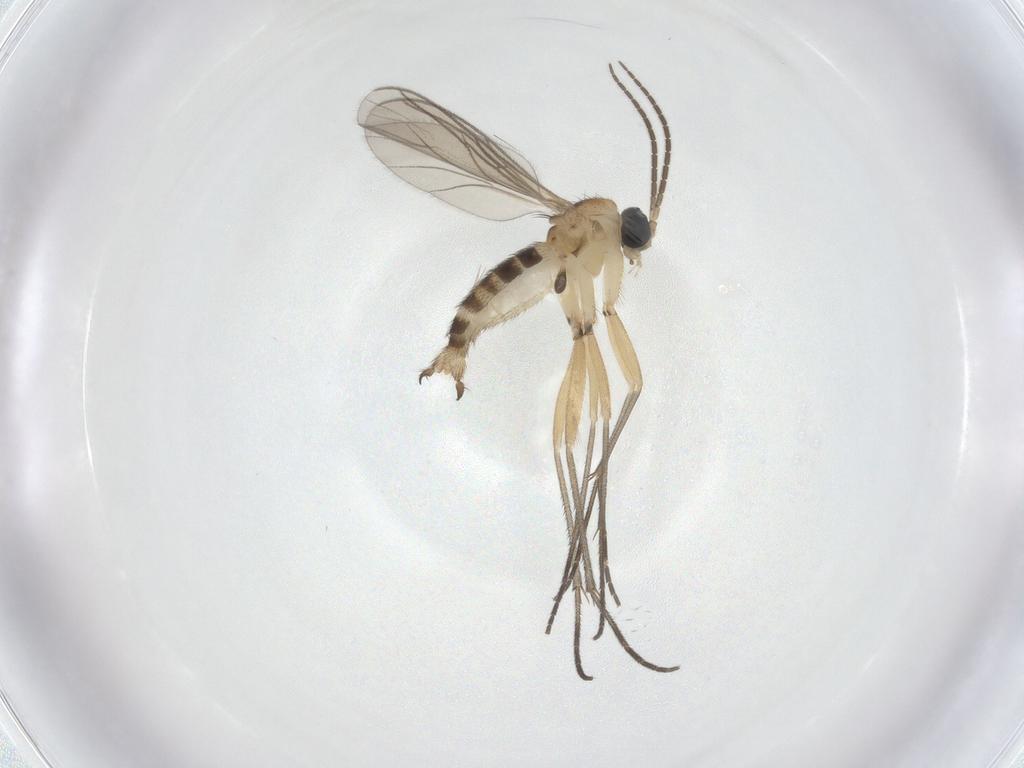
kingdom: Animalia
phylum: Arthropoda
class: Insecta
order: Diptera
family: Sciaridae
